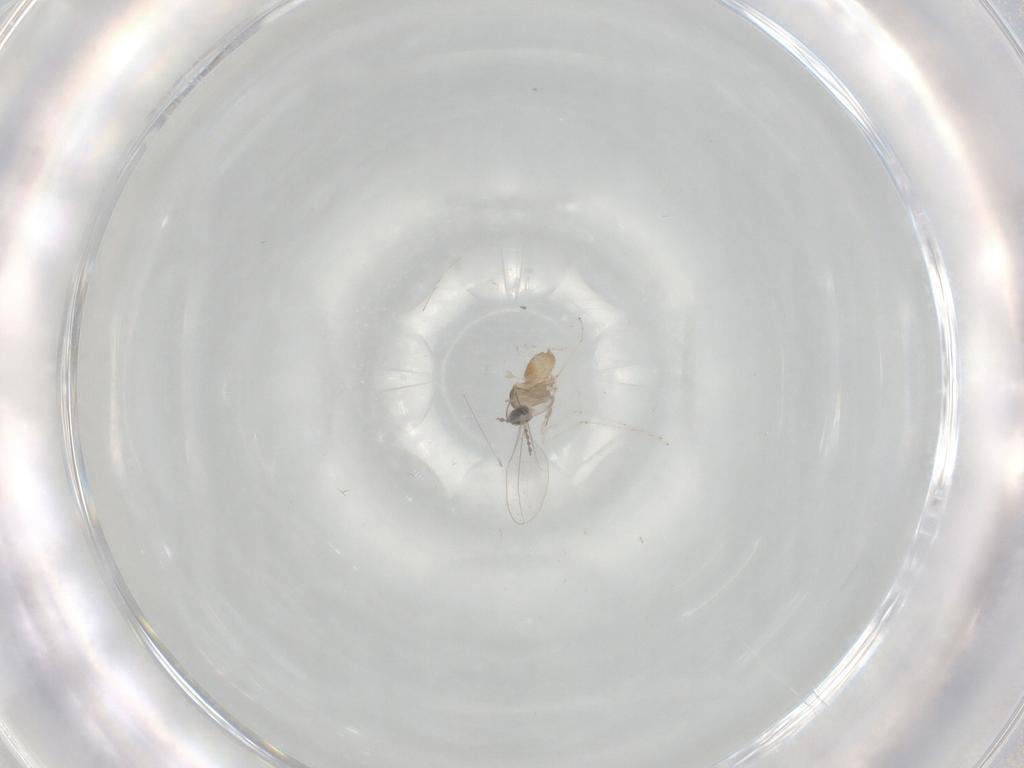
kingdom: Animalia
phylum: Arthropoda
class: Insecta
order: Diptera
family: Cecidomyiidae
